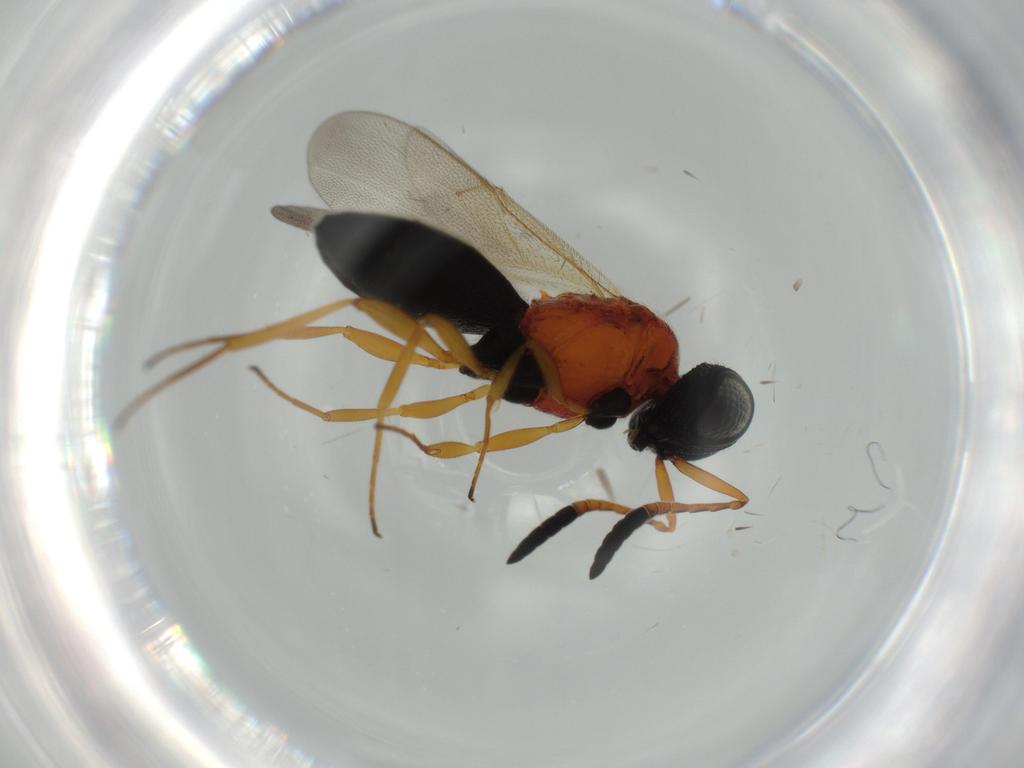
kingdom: Animalia
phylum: Arthropoda
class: Insecta
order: Hymenoptera
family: Scelionidae
